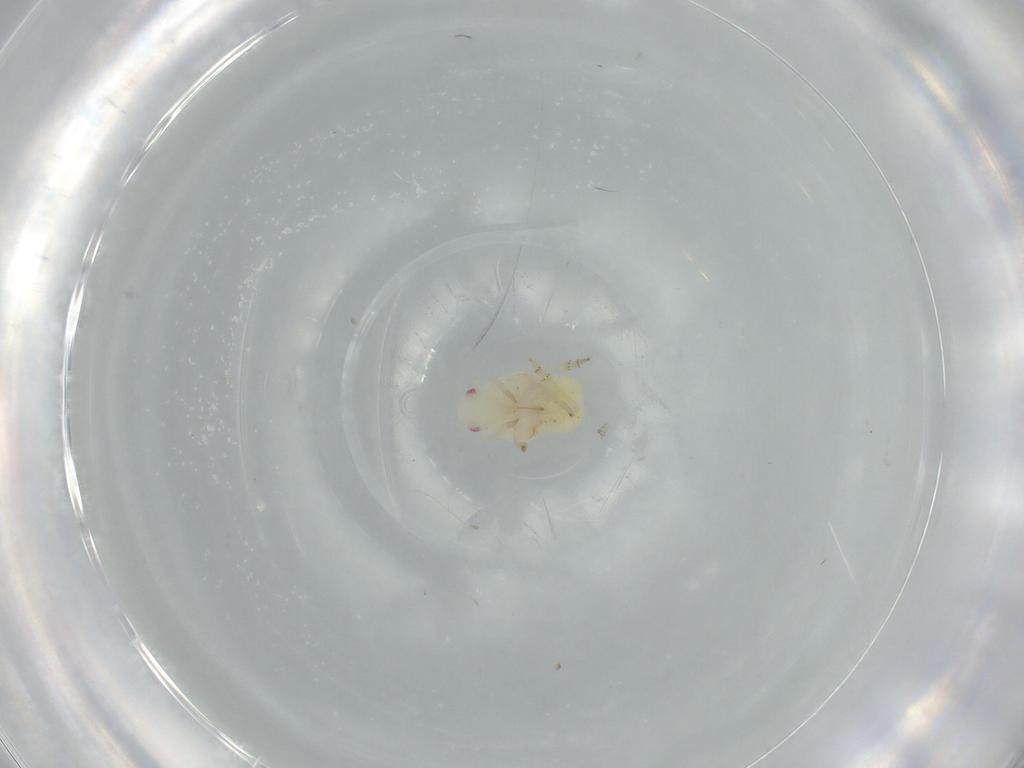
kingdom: Animalia
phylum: Arthropoda
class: Insecta
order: Hemiptera
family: Flatidae
